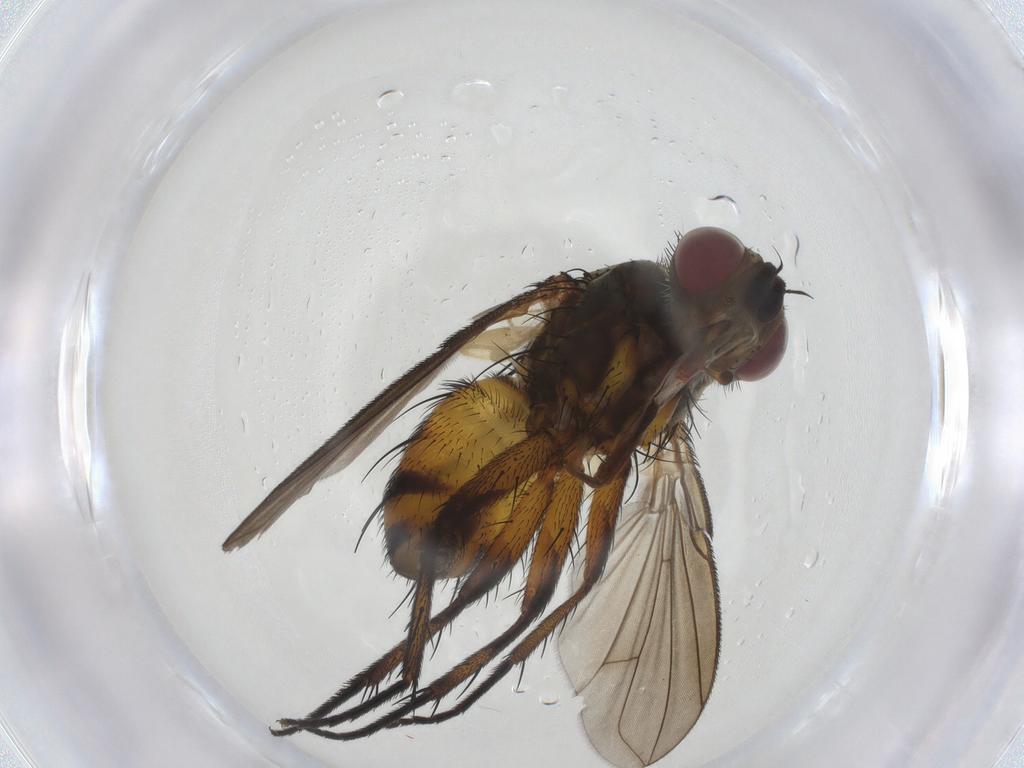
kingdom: Animalia
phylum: Arthropoda
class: Insecta
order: Diptera
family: Tachinidae
